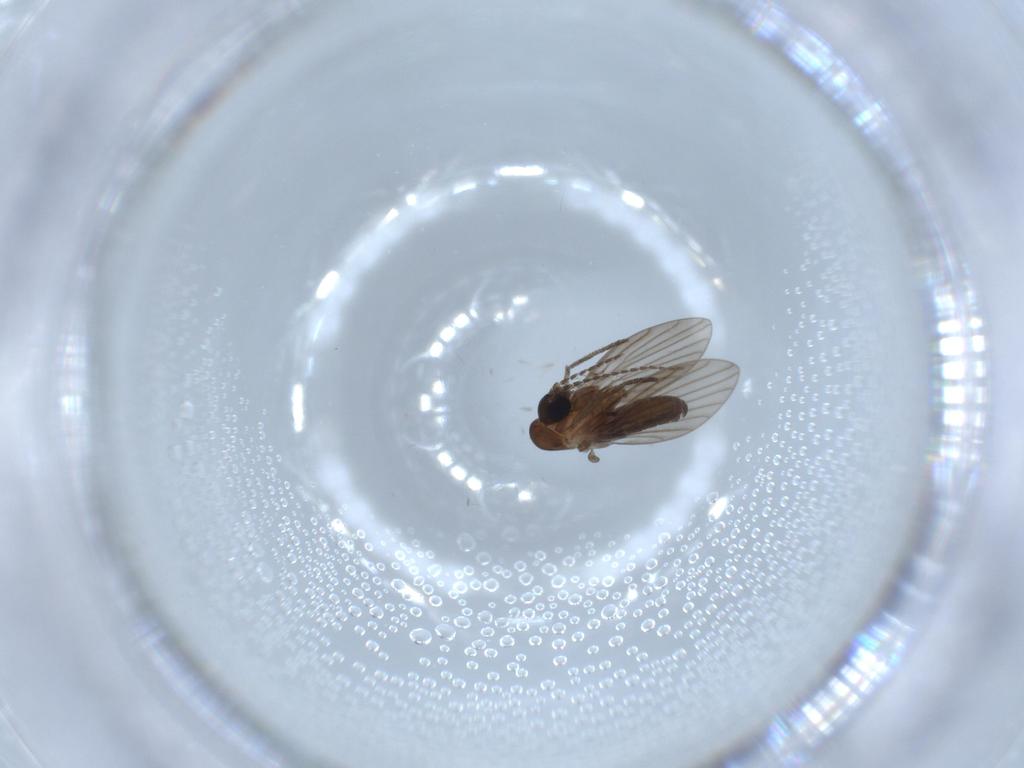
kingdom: Animalia
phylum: Arthropoda
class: Insecta
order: Diptera
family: Psychodidae
